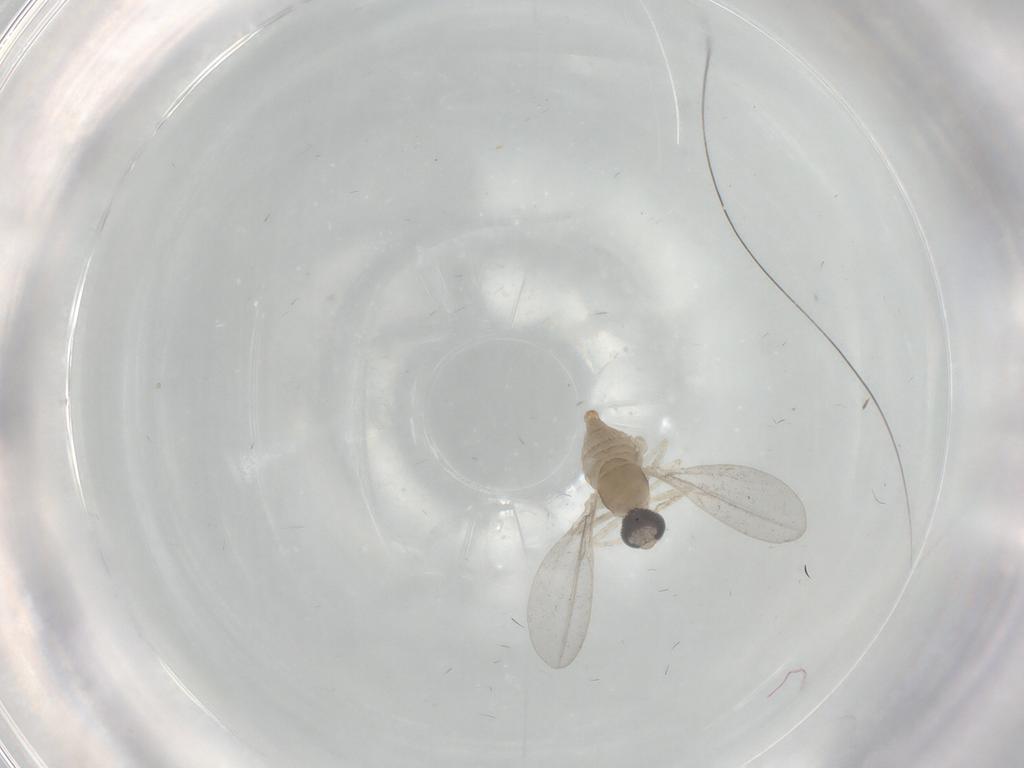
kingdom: Animalia
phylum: Arthropoda
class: Insecta
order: Diptera
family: Cecidomyiidae
